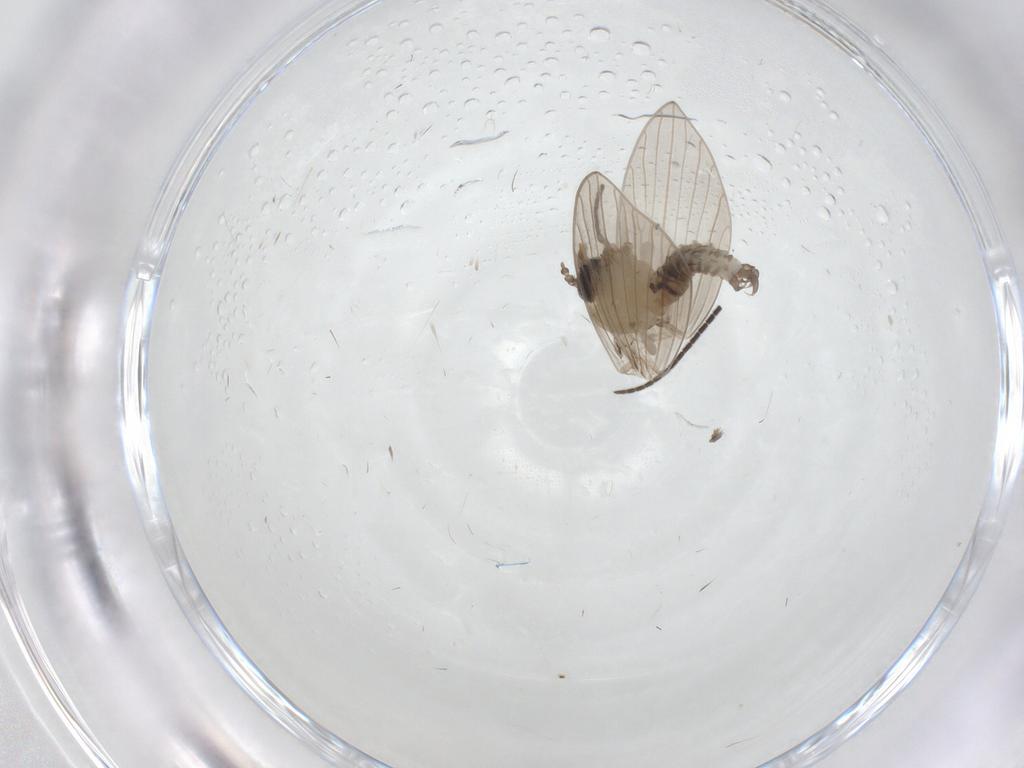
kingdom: Animalia
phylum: Arthropoda
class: Insecta
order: Diptera
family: Psychodidae
